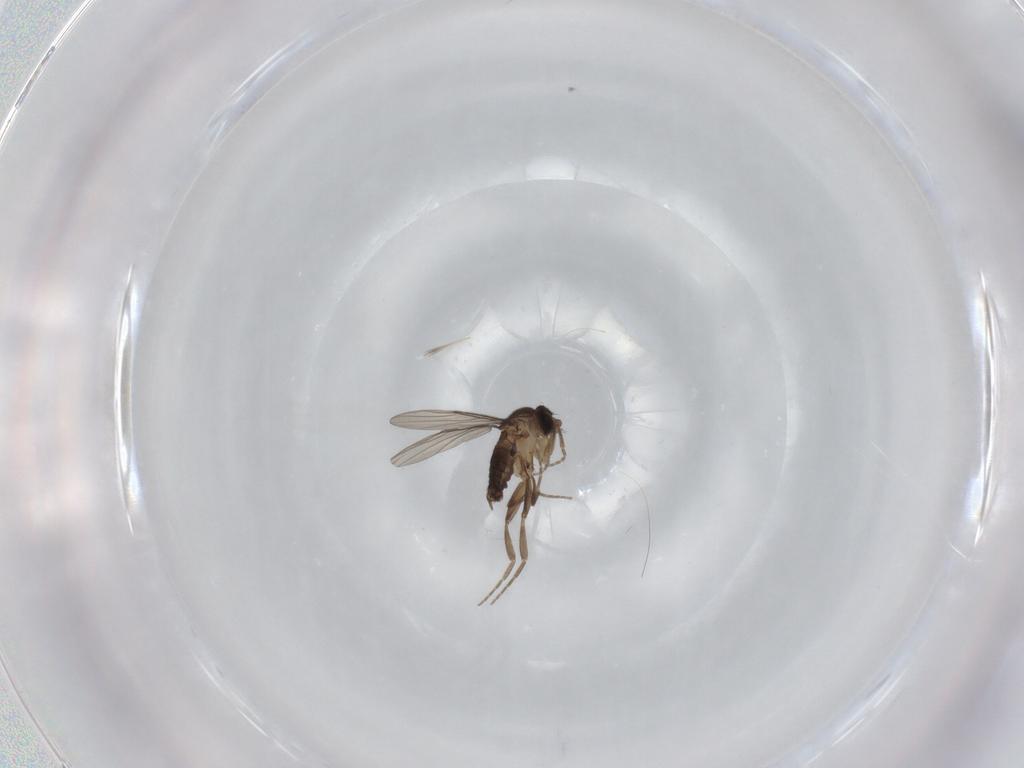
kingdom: Animalia
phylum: Arthropoda
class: Insecta
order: Diptera
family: Phoridae
